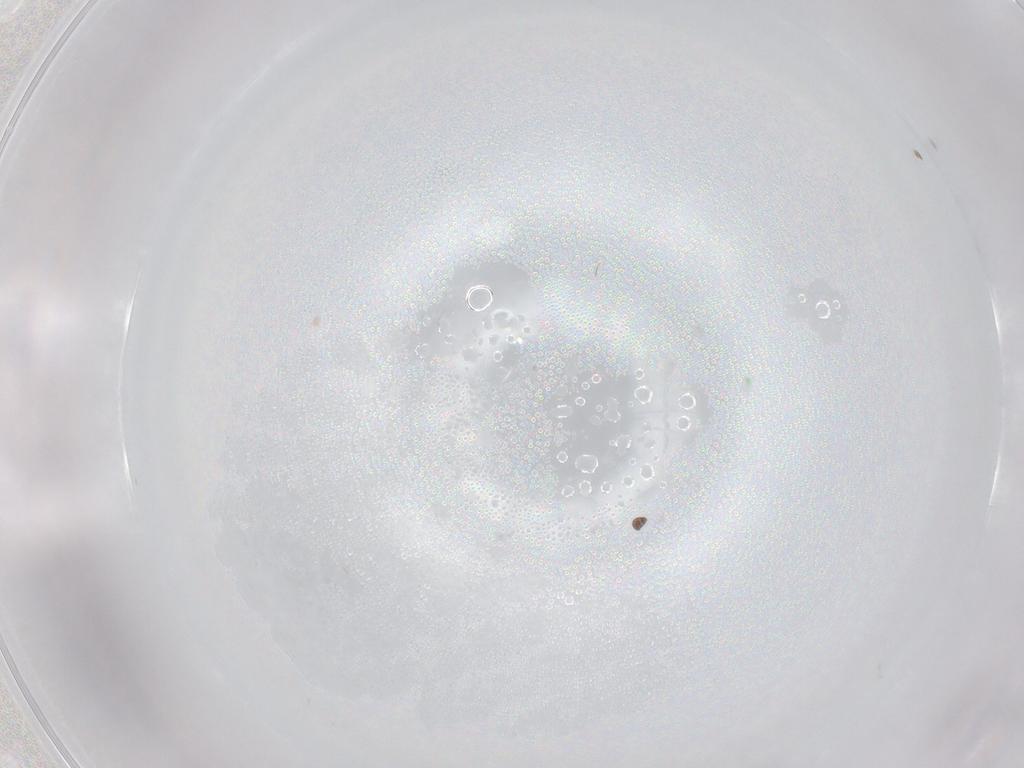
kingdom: Animalia
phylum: Arthropoda
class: Collembola
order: Entomobryomorpha
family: Entomobryidae
